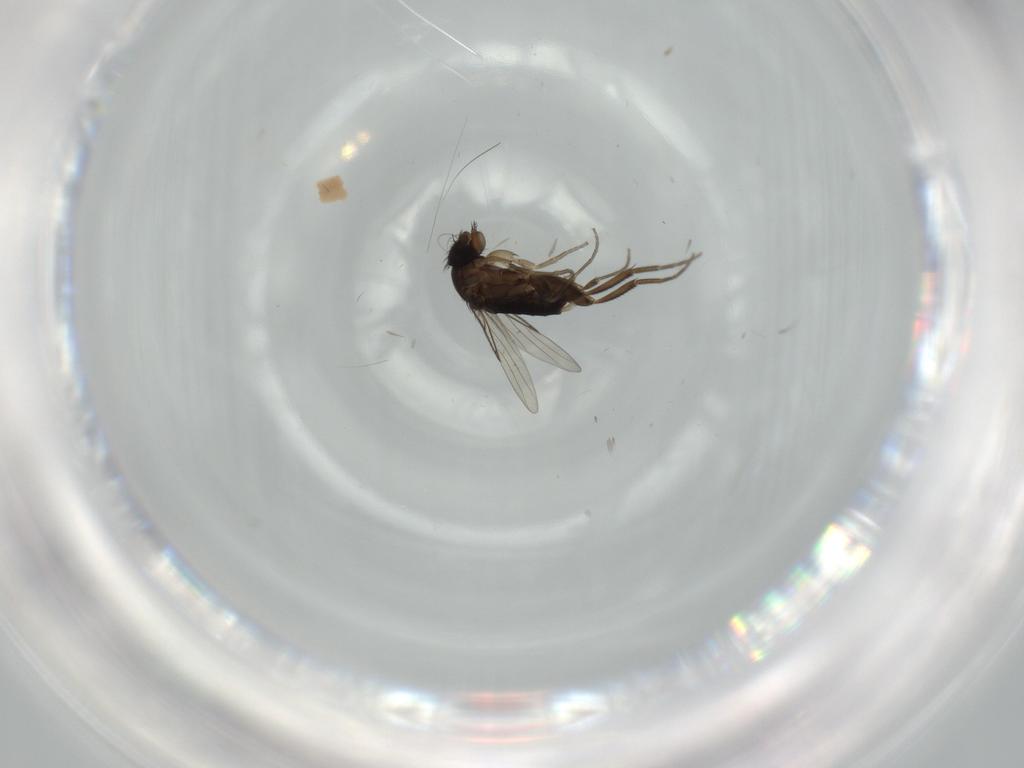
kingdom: Animalia
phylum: Arthropoda
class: Insecta
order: Diptera
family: Phoridae
